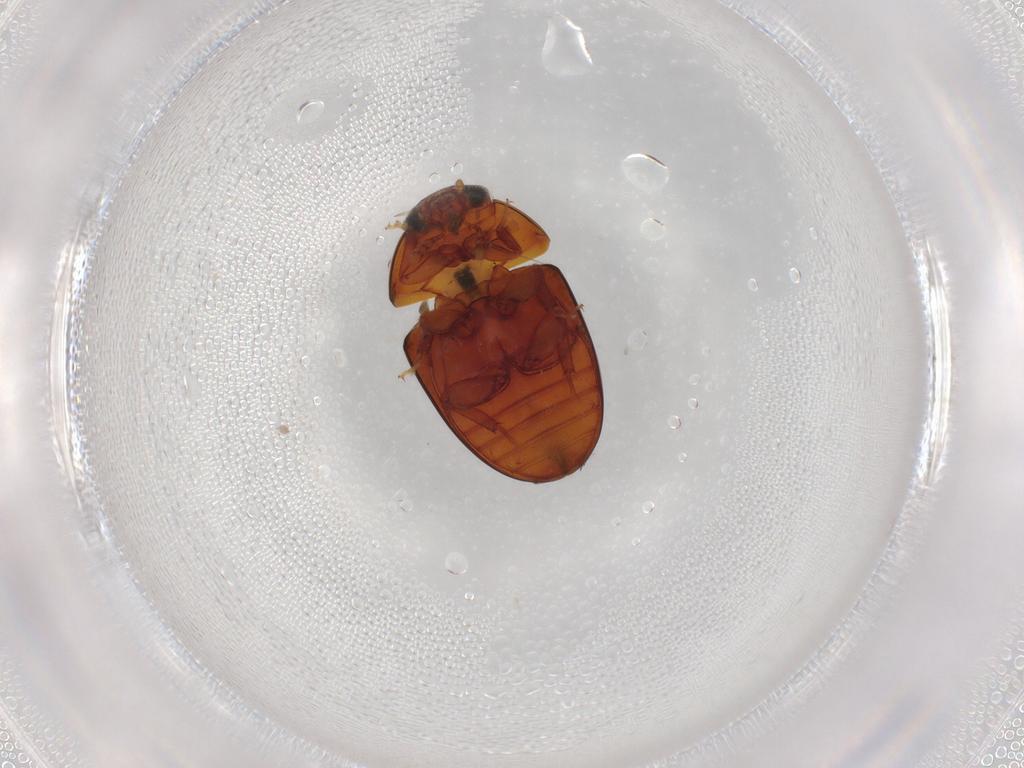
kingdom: Animalia
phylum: Arthropoda
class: Insecta
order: Coleoptera
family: Phalacridae
